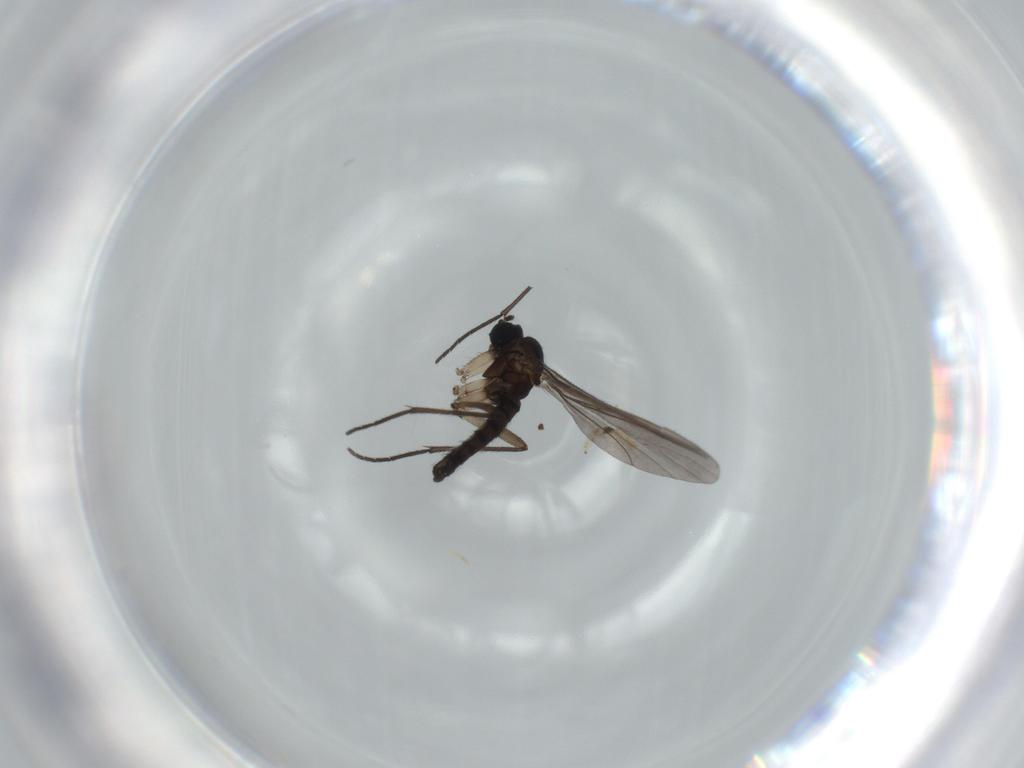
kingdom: Animalia
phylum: Arthropoda
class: Insecta
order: Diptera
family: Sciaridae
